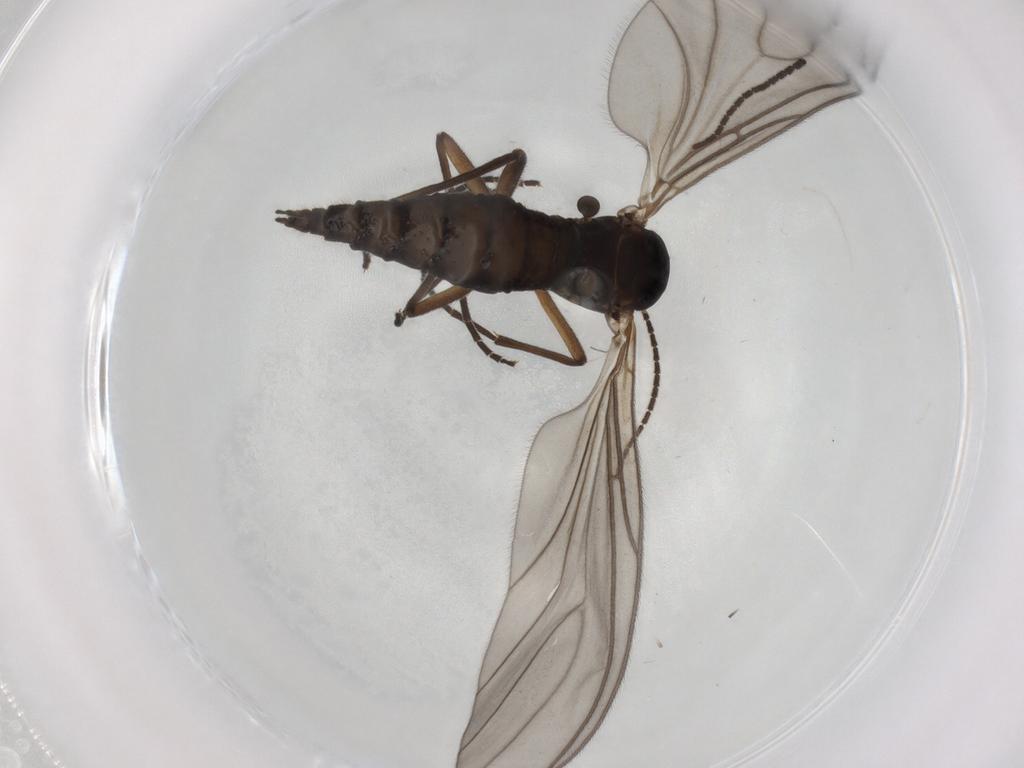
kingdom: Animalia
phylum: Arthropoda
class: Insecta
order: Diptera
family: Sciaridae
